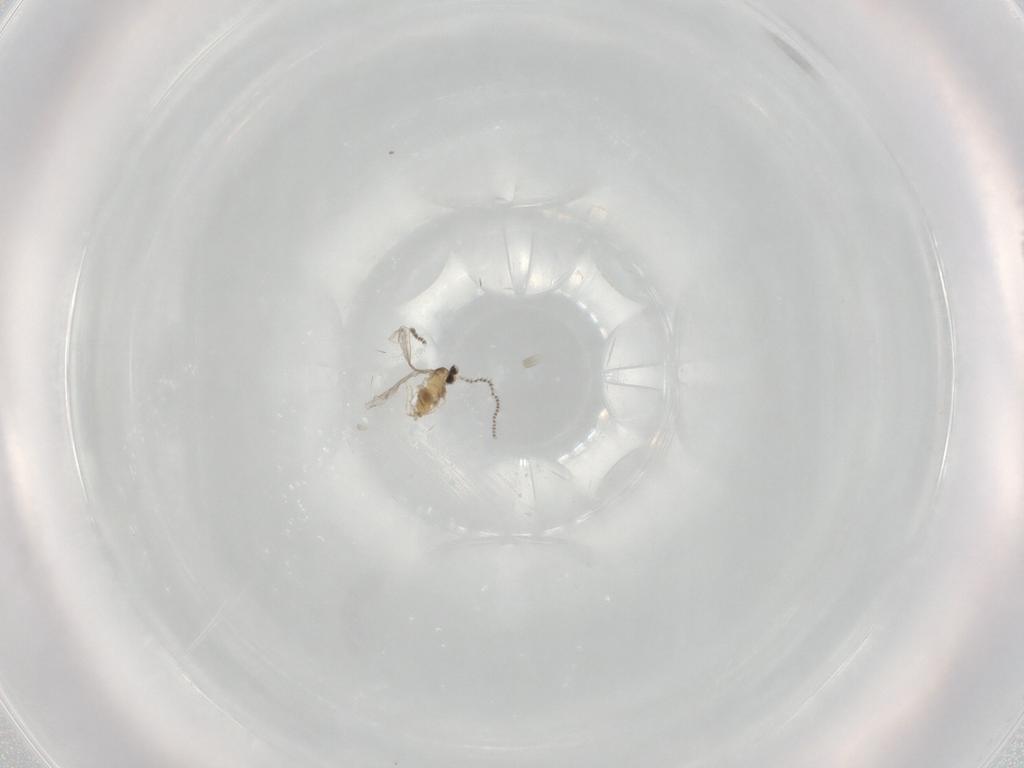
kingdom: Animalia
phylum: Arthropoda
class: Insecta
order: Diptera
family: Cecidomyiidae
